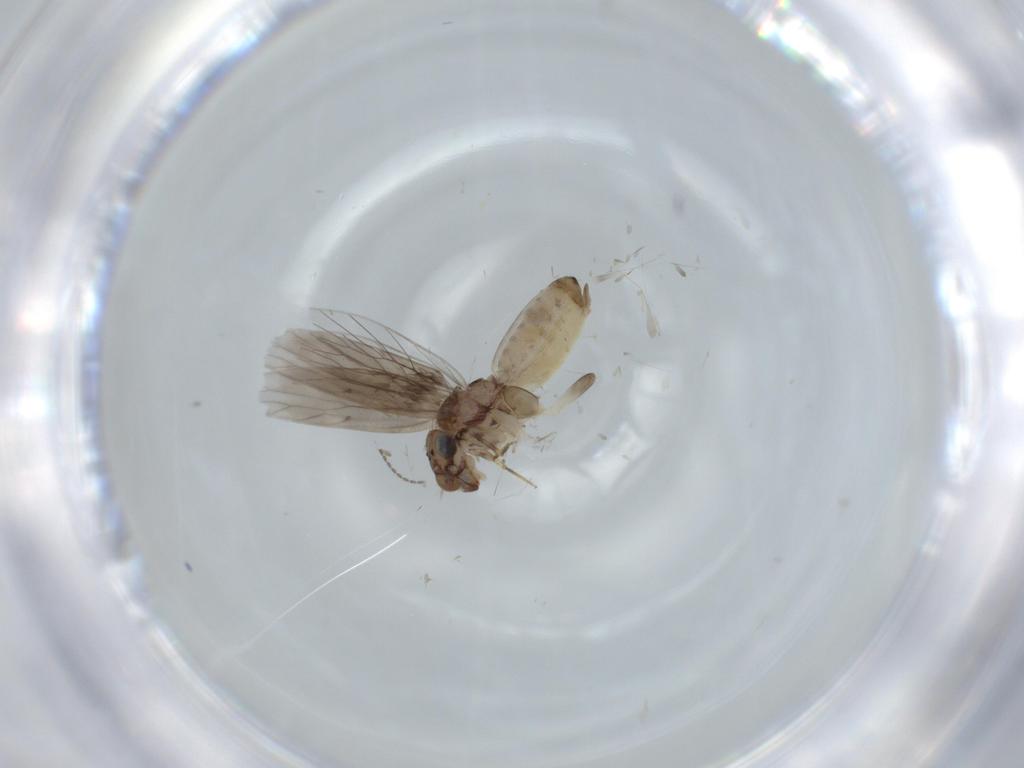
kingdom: Animalia
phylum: Arthropoda
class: Insecta
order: Psocodea
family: Lepidopsocidae
